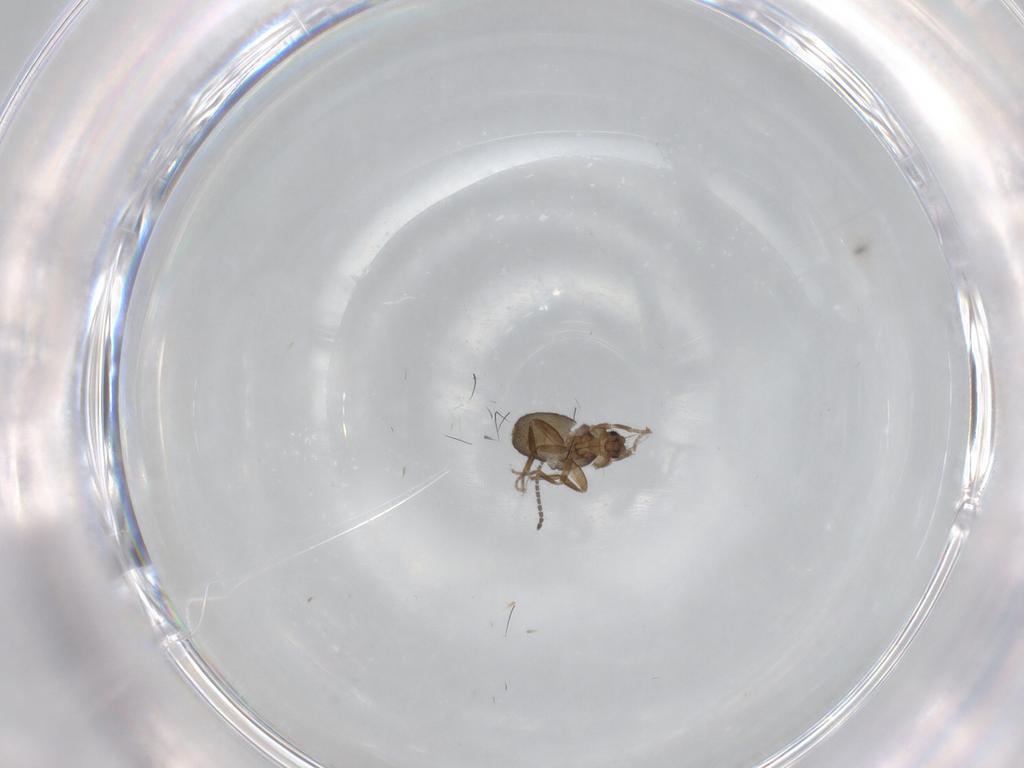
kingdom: Animalia
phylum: Arthropoda
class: Insecta
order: Diptera
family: Sciaridae
